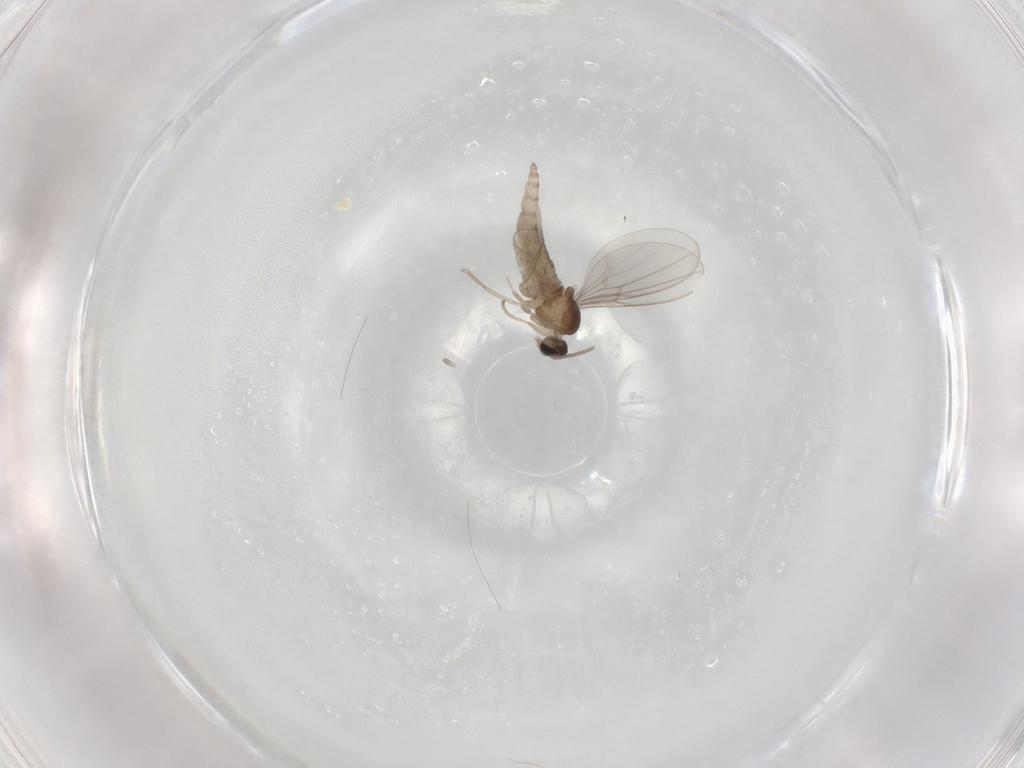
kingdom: Animalia
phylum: Arthropoda
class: Insecta
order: Diptera
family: Cecidomyiidae
